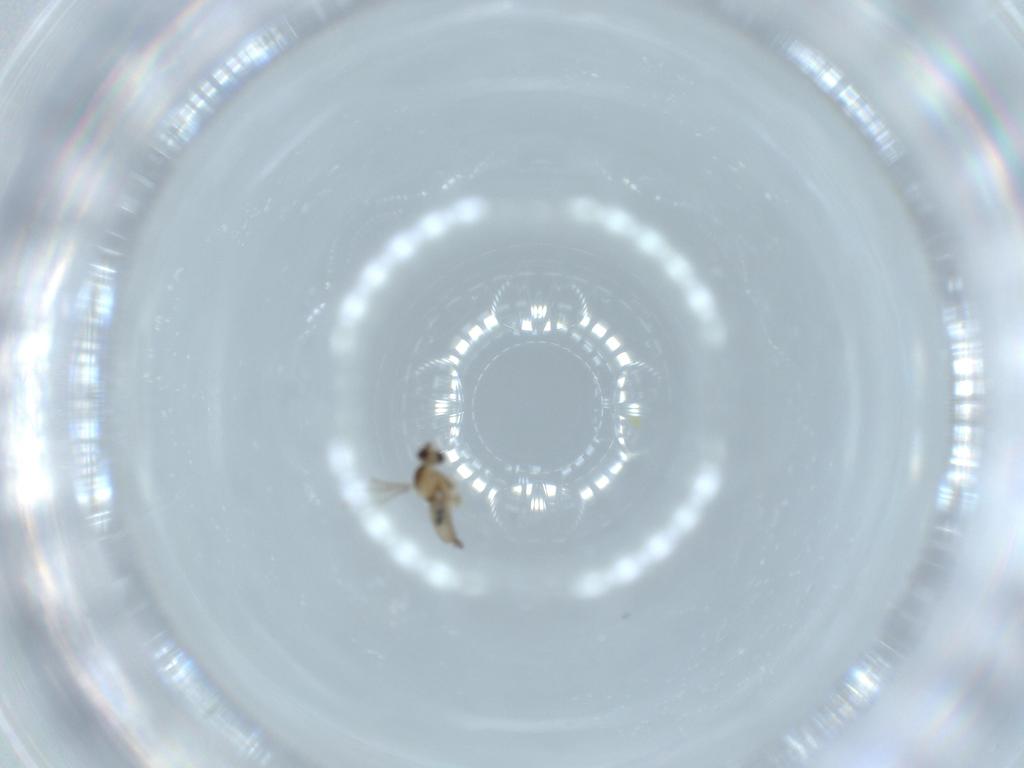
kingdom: Animalia
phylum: Arthropoda
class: Insecta
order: Diptera
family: Cecidomyiidae
